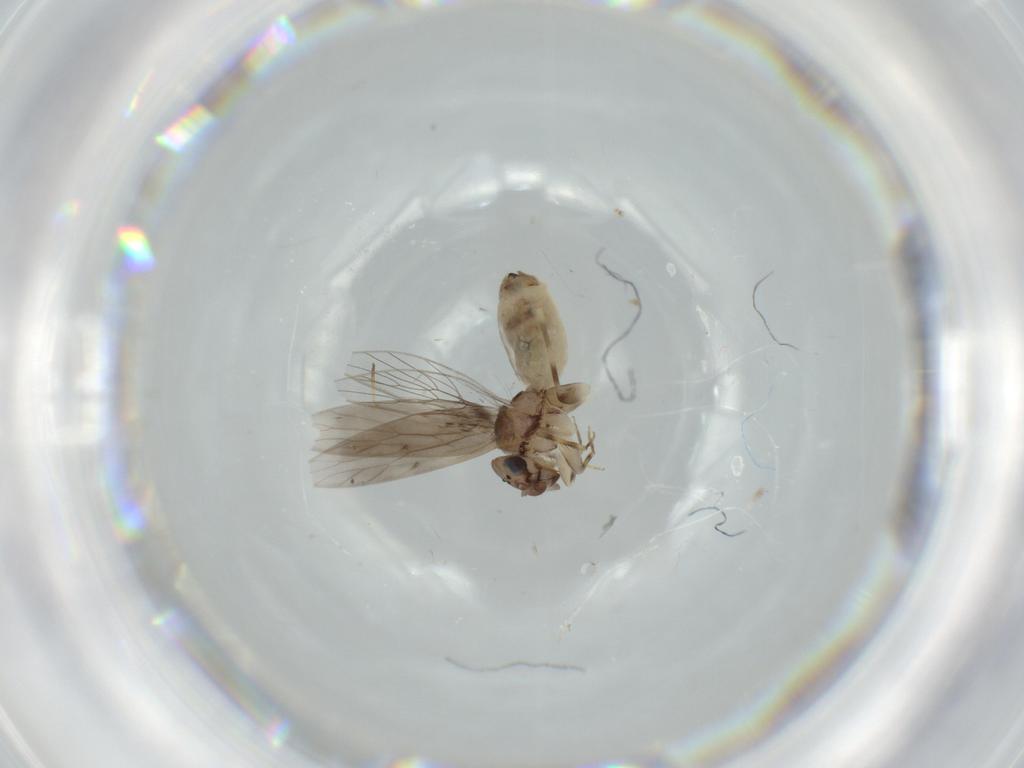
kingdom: Animalia
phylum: Arthropoda
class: Insecta
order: Psocodea
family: Lepidopsocidae
